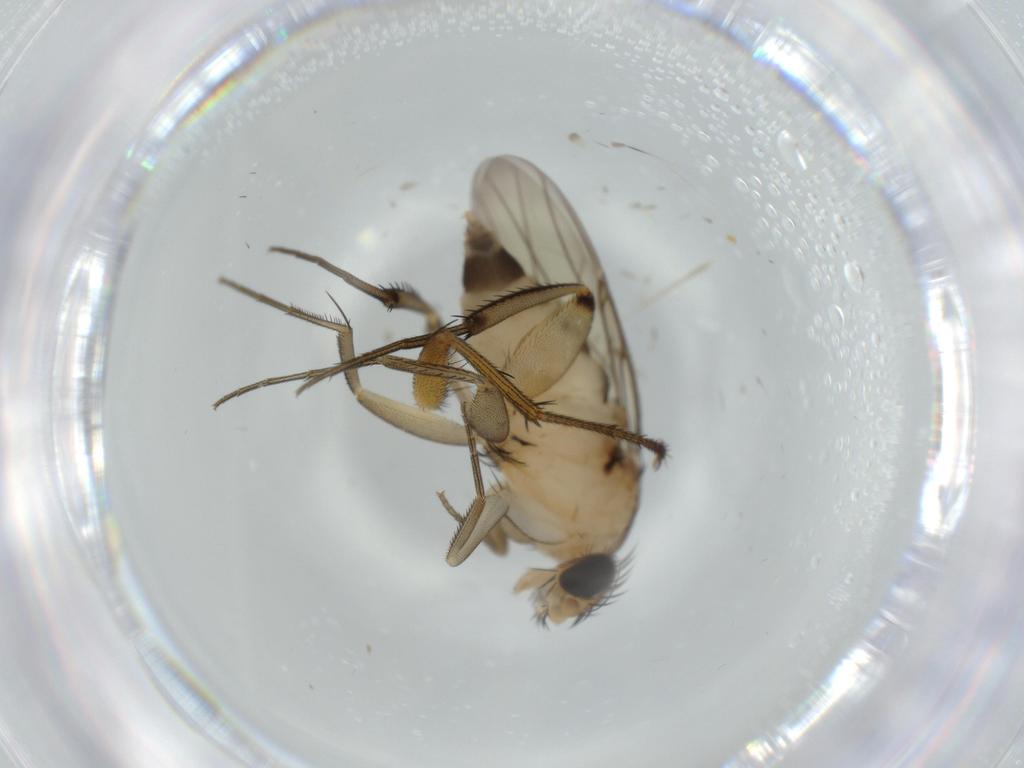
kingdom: Animalia
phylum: Arthropoda
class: Insecta
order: Diptera
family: Phoridae
